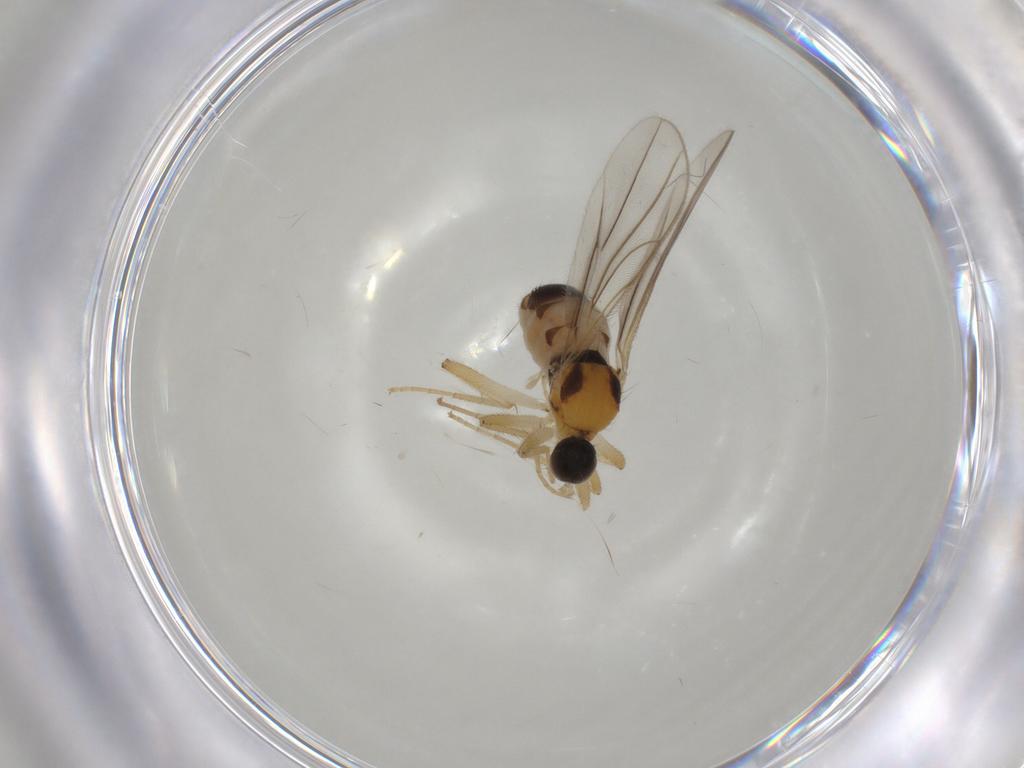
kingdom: Animalia
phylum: Arthropoda
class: Insecta
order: Diptera
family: Hybotidae
